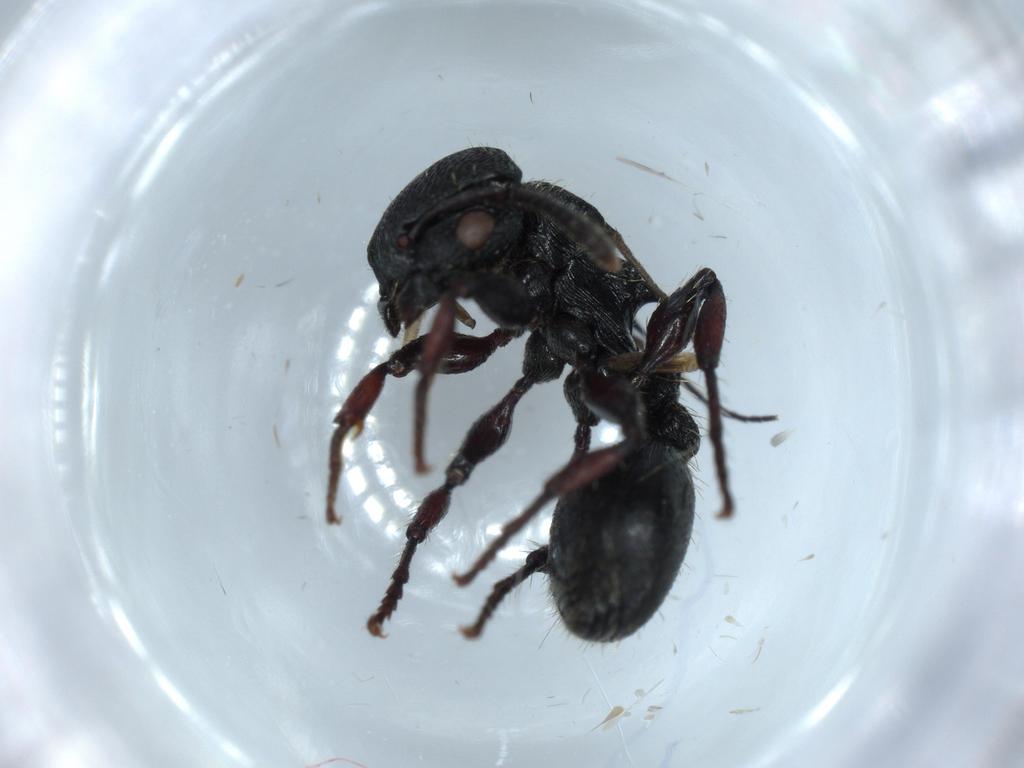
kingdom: Animalia
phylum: Arthropoda
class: Insecta
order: Hymenoptera
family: Formicidae
